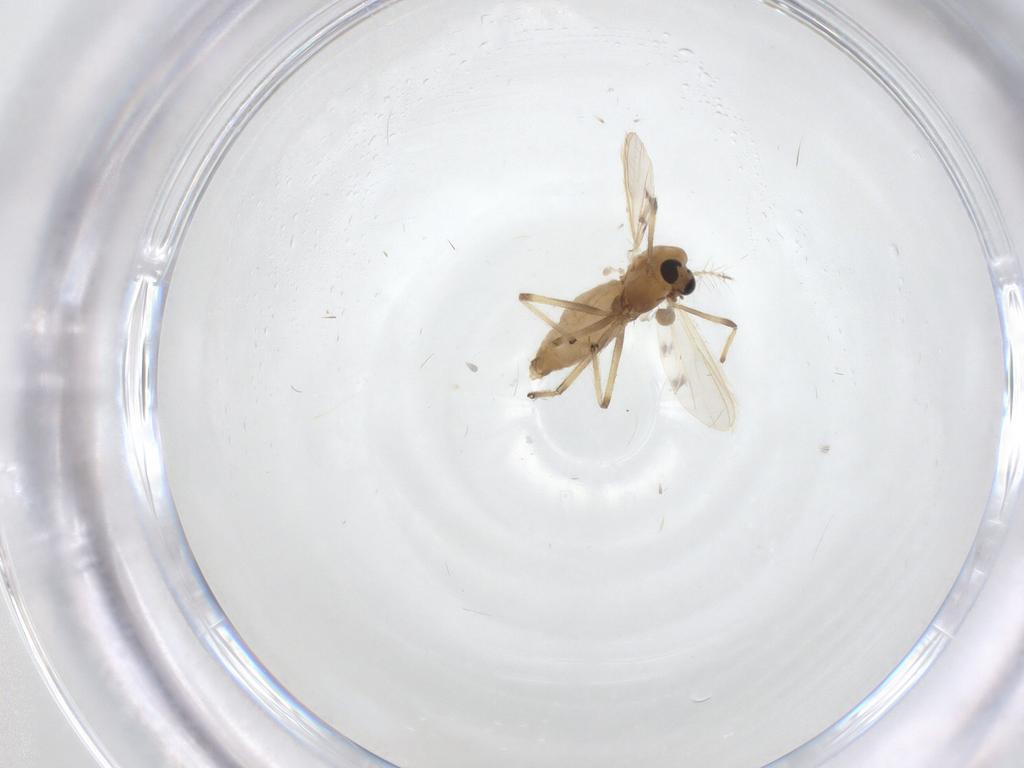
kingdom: Animalia
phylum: Arthropoda
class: Insecta
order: Diptera
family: Chironomidae
